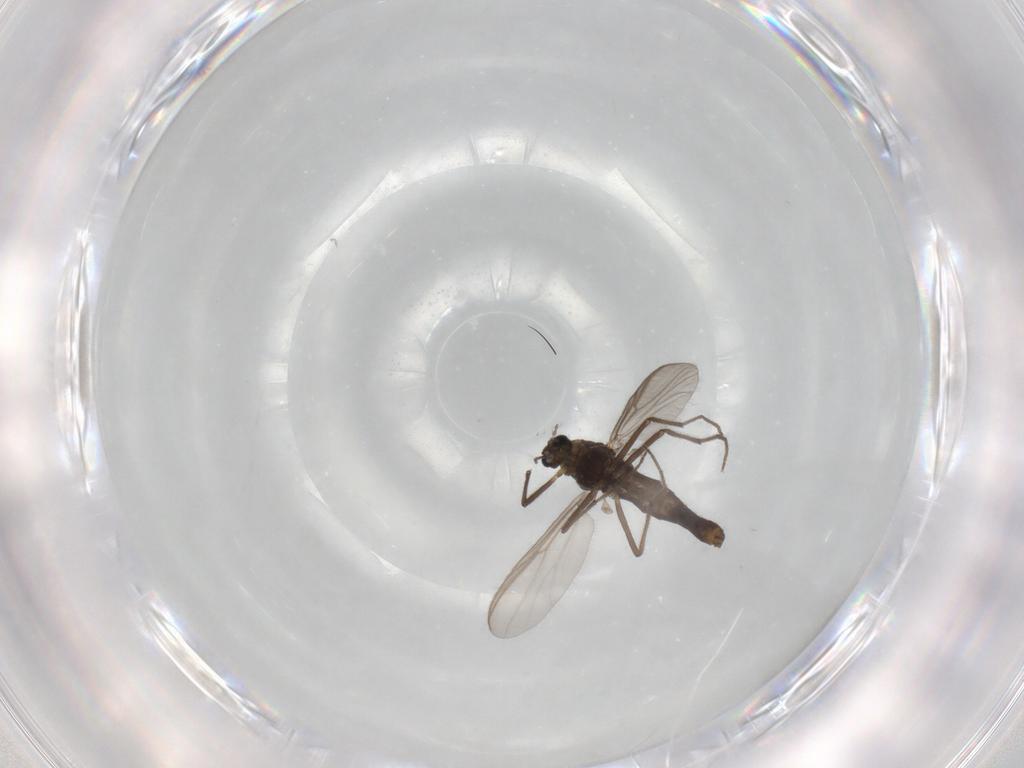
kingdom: Animalia
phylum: Arthropoda
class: Insecta
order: Diptera
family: Chironomidae
